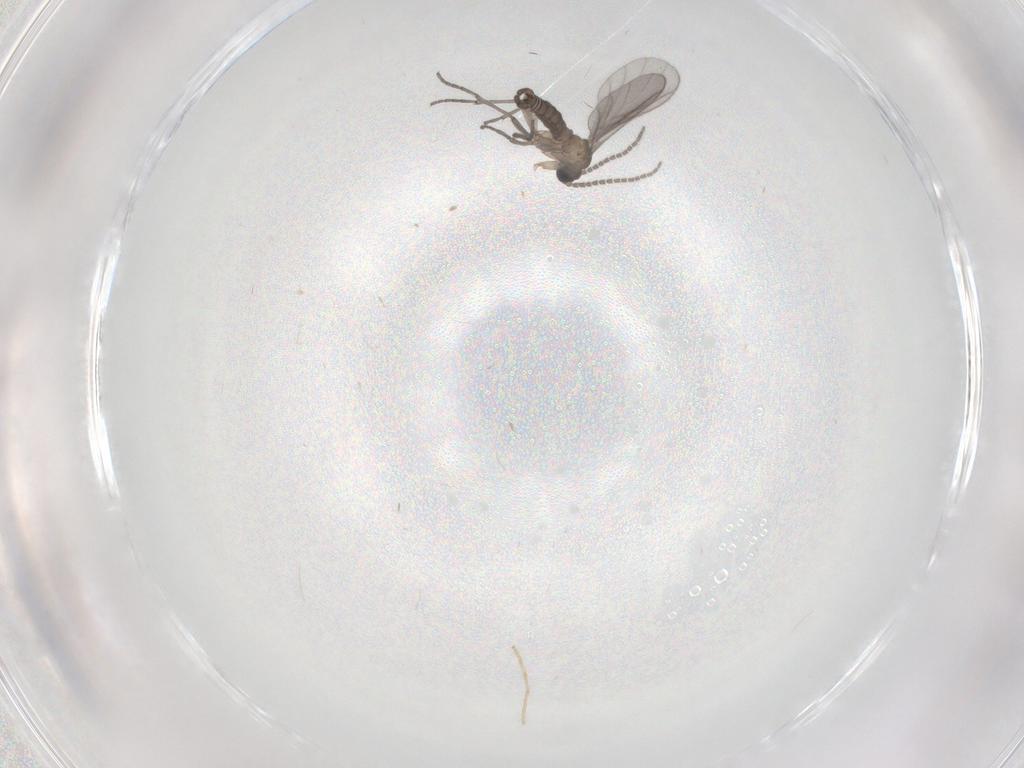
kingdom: Animalia
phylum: Arthropoda
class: Insecta
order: Diptera
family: Sciaridae
